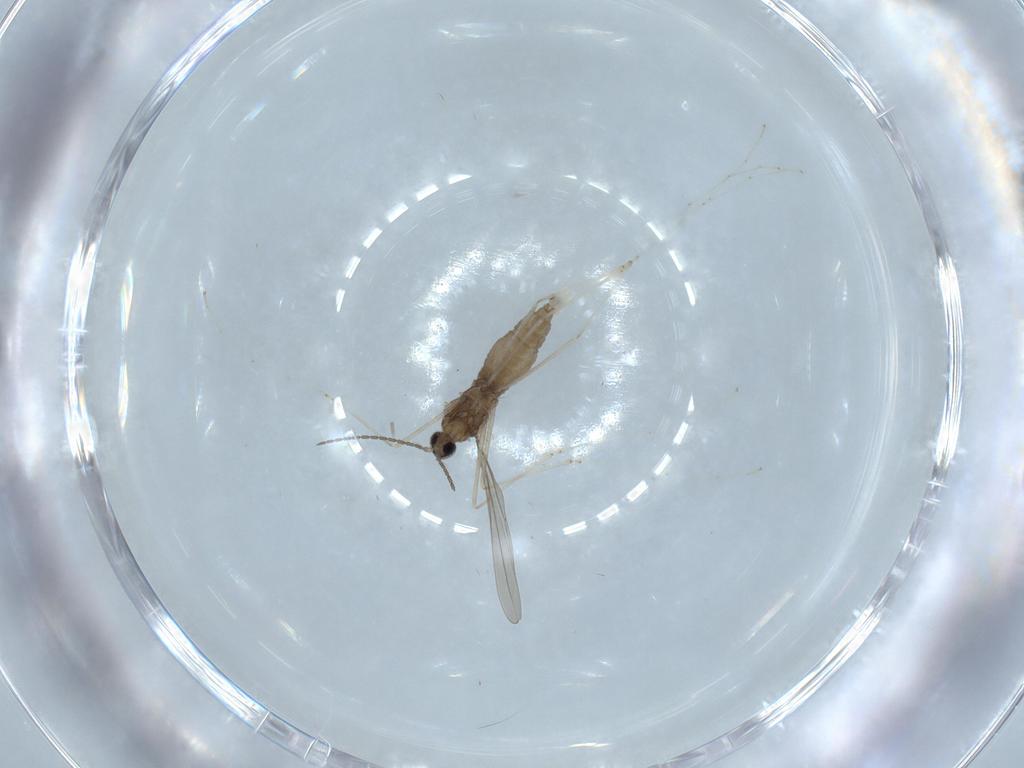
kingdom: Animalia
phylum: Arthropoda
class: Insecta
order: Diptera
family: Cecidomyiidae
